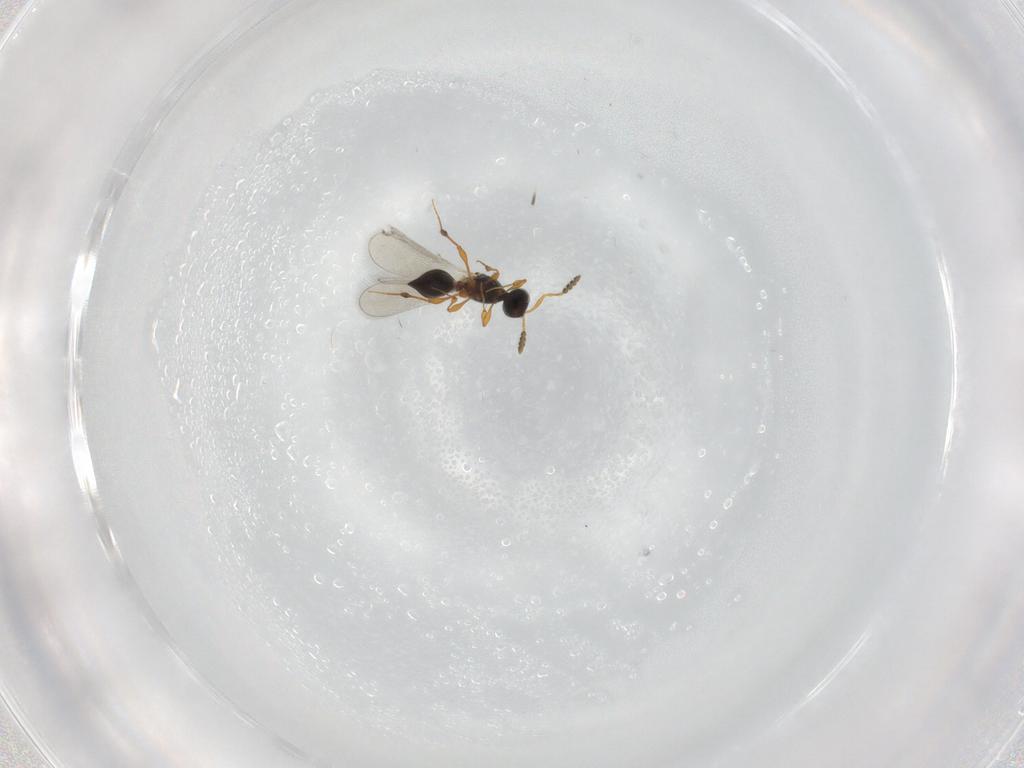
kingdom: Animalia
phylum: Arthropoda
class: Insecta
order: Hymenoptera
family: Platygastridae
